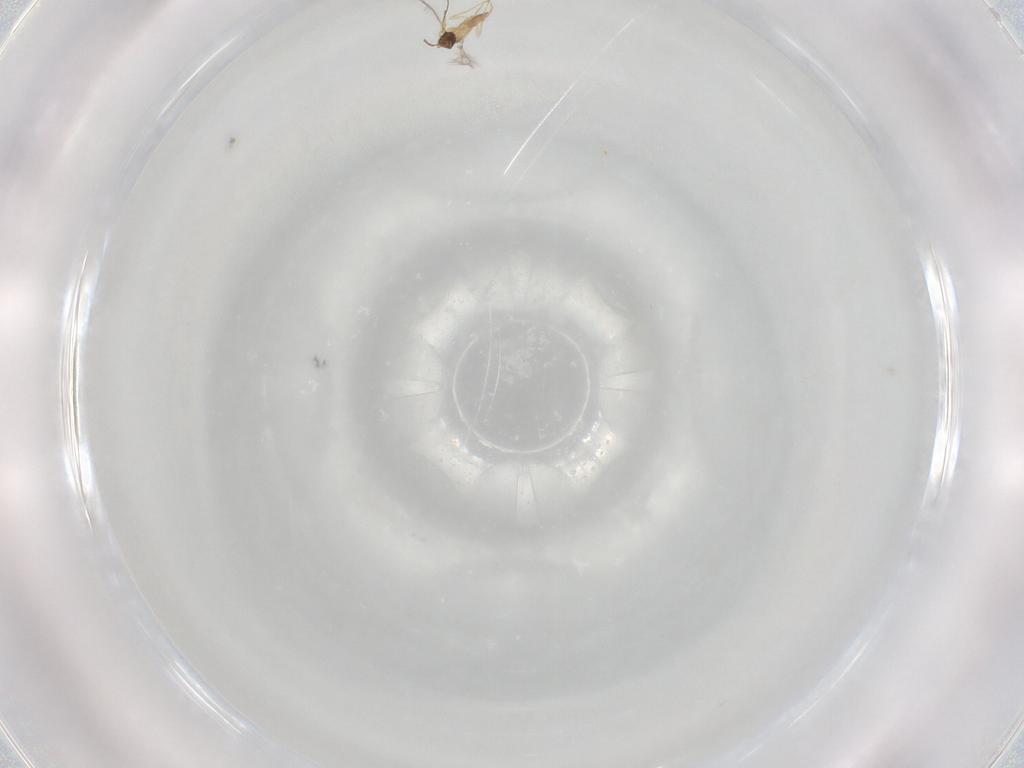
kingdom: Animalia
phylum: Arthropoda
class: Insecta
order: Hymenoptera
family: Mymaridae
